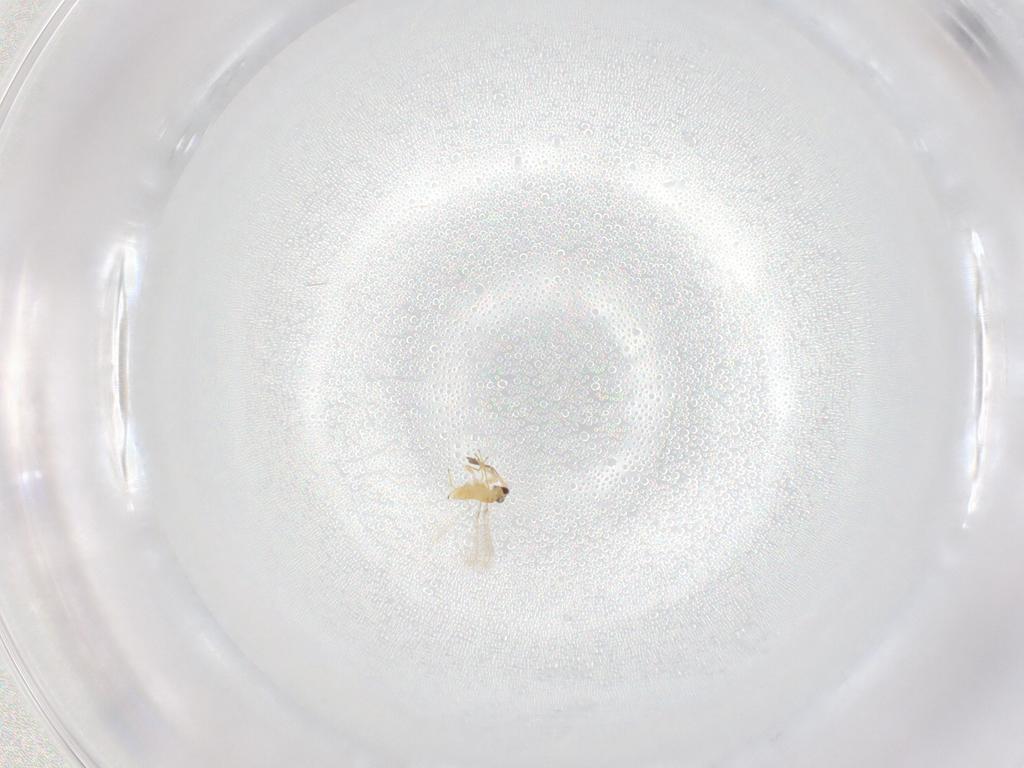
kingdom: Animalia
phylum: Arthropoda
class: Insecta
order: Hymenoptera
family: Mymaridae
